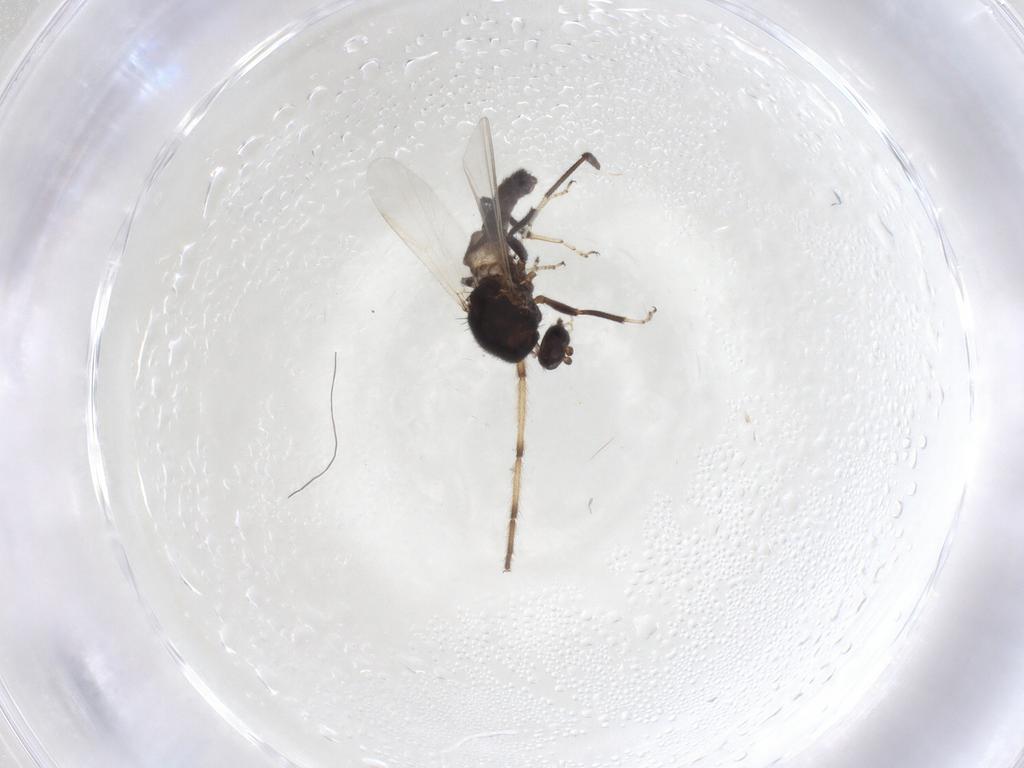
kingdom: Animalia
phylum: Arthropoda
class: Insecta
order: Diptera
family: Ceratopogonidae
